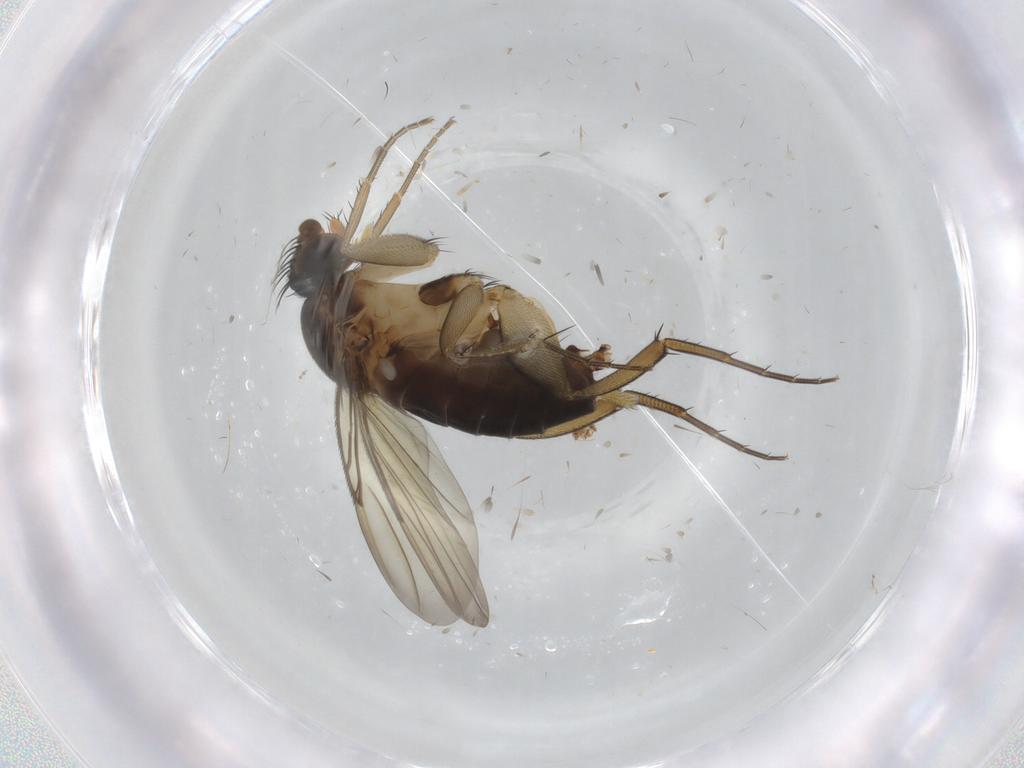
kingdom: Animalia
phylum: Arthropoda
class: Insecta
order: Diptera
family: Phoridae
